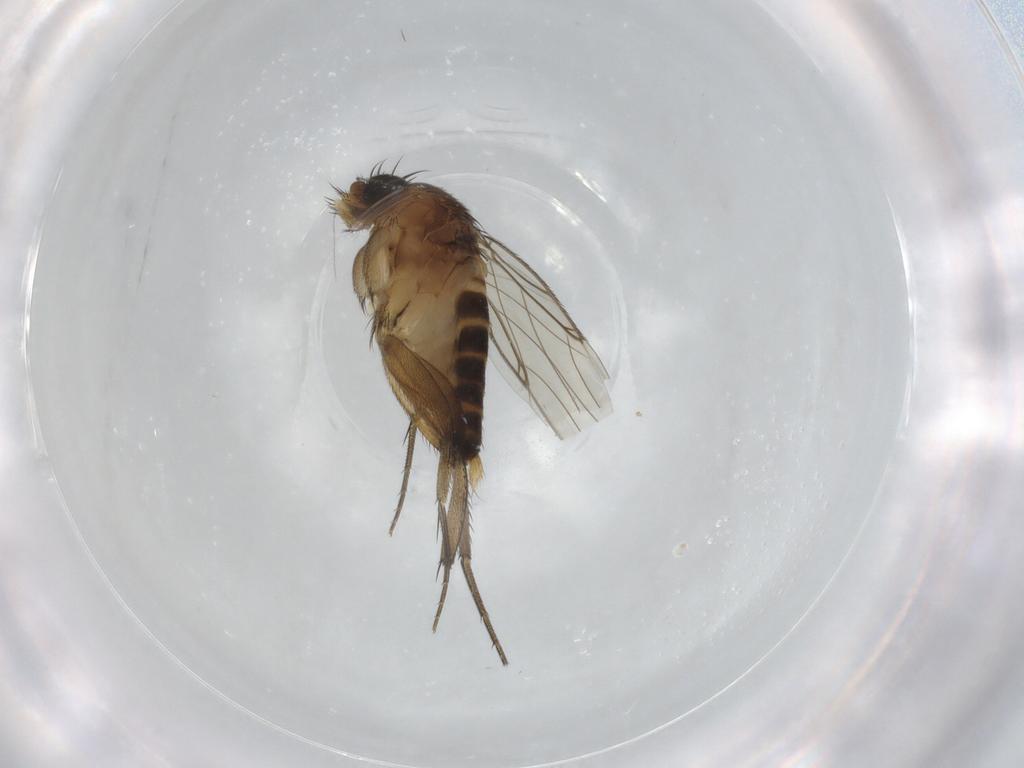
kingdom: Animalia
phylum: Arthropoda
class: Insecta
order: Diptera
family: Phoridae
